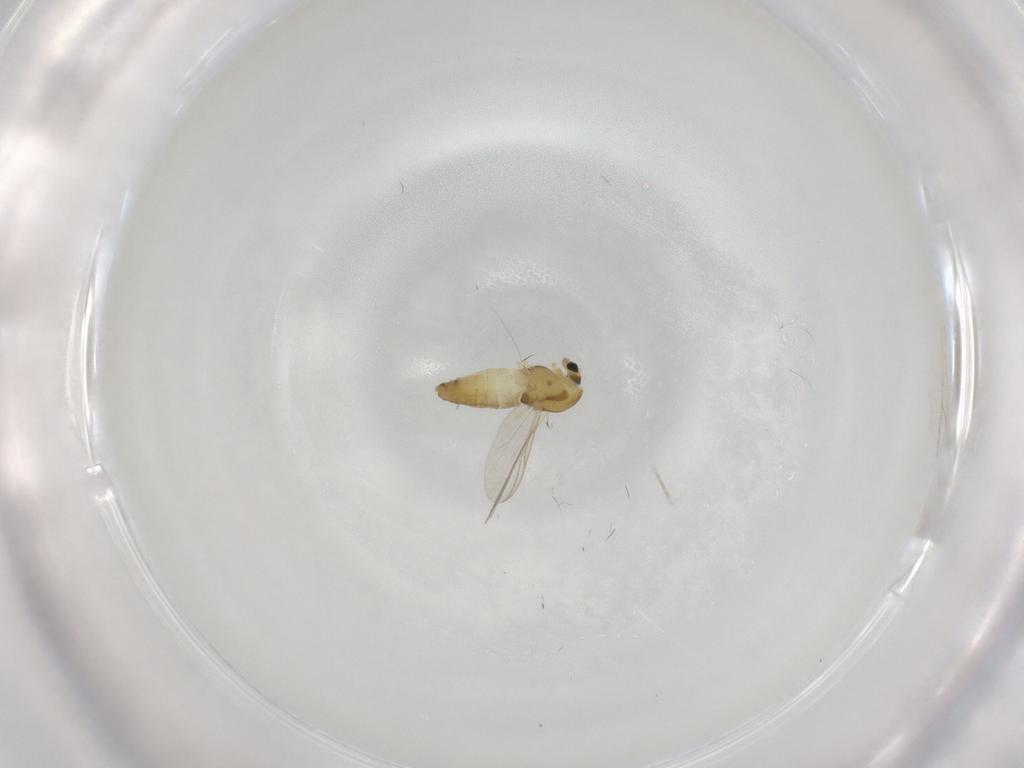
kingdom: Animalia
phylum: Arthropoda
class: Insecta
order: Diptera
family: Chironomidae
